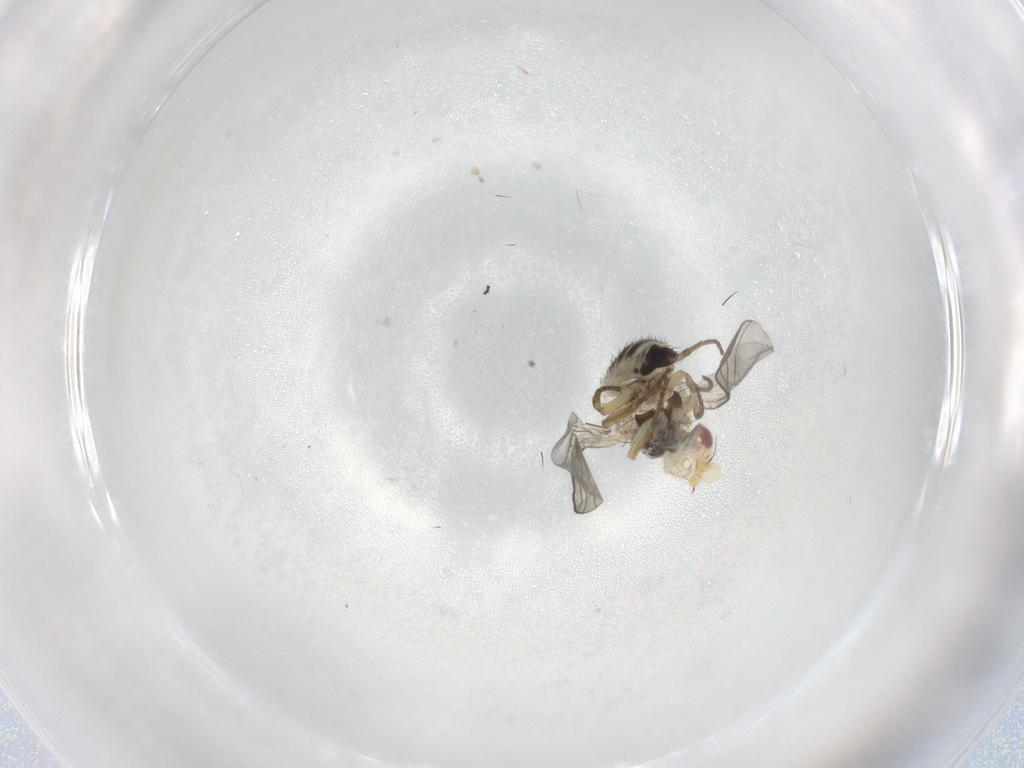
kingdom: Animalia
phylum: Arthropoda
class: Insecta
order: Diptera
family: Agromyzidae
